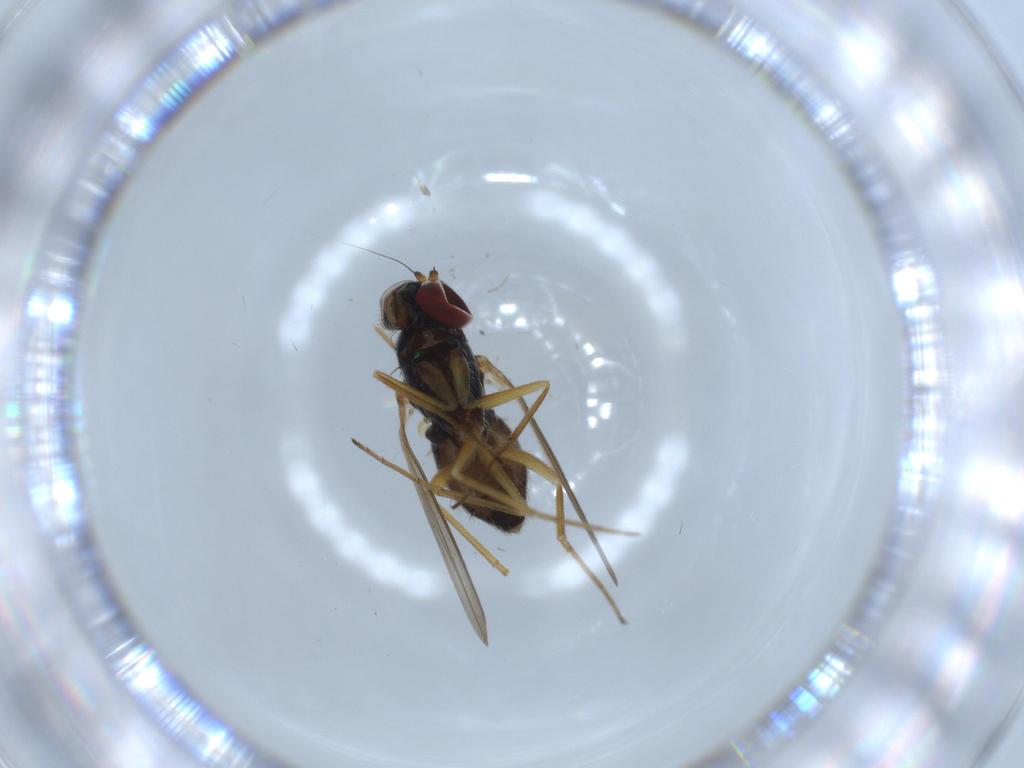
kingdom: Animalia
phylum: Arthropoda
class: Insecta
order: Diptera
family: Dolichopodidae
